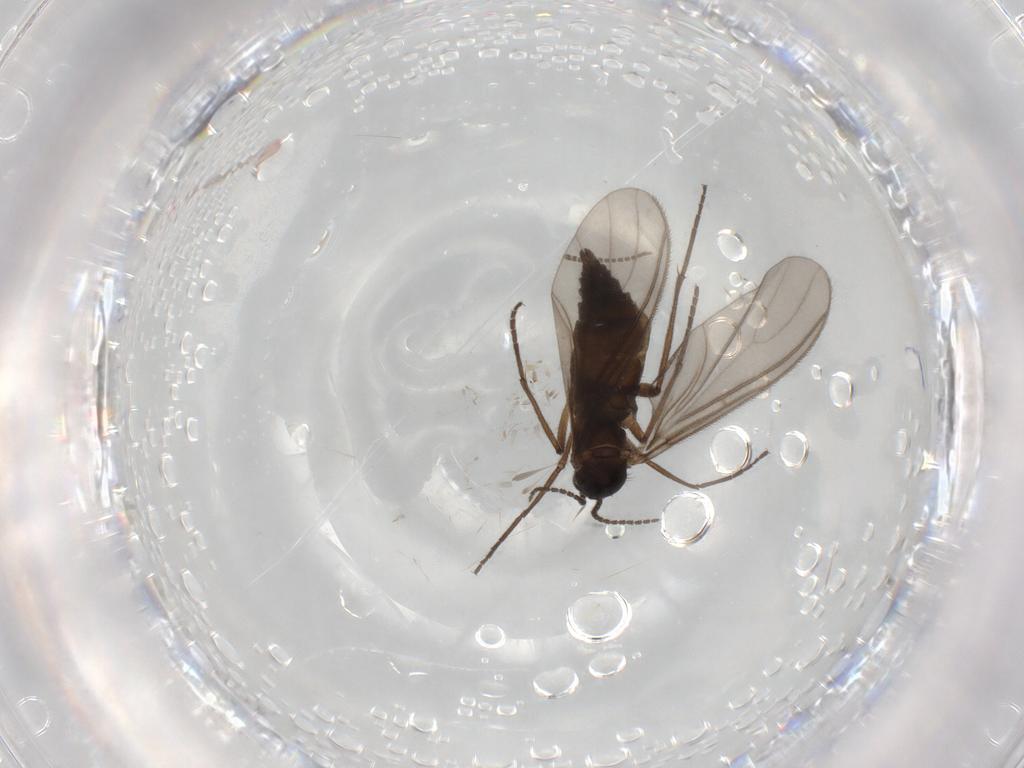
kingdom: Animalia
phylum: Arthropoda
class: Insecta
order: Diptera
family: Sciaridae
